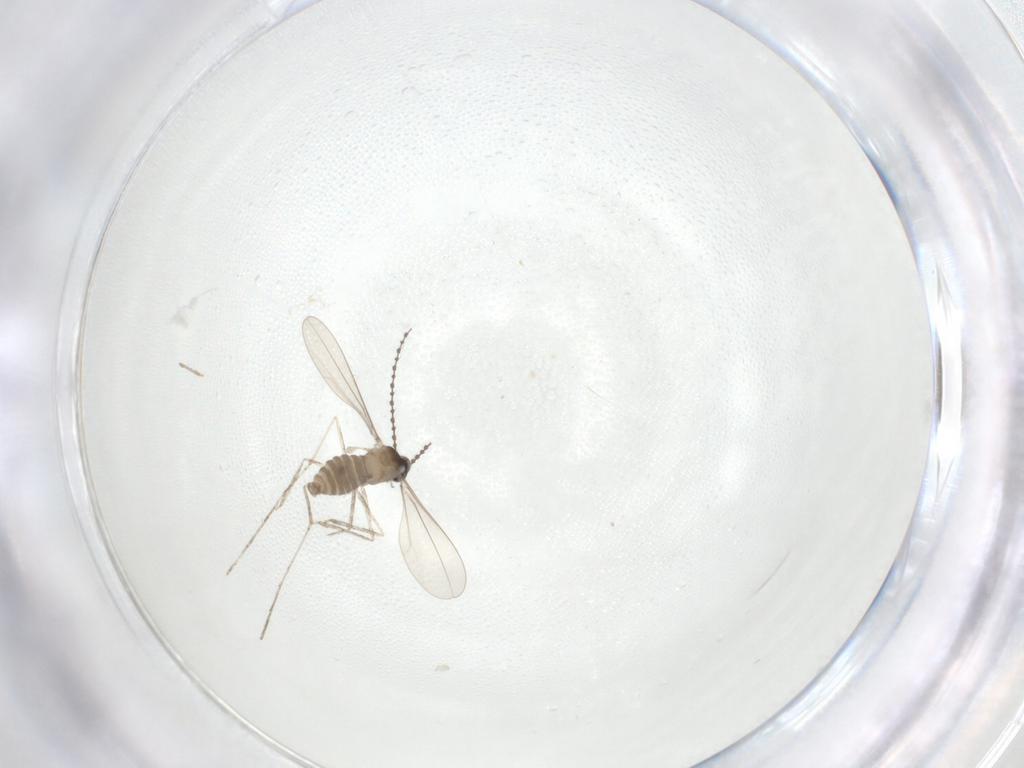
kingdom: Animalia
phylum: Arthropoda
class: Insecta
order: Diptera
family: Cecidomyiidae
